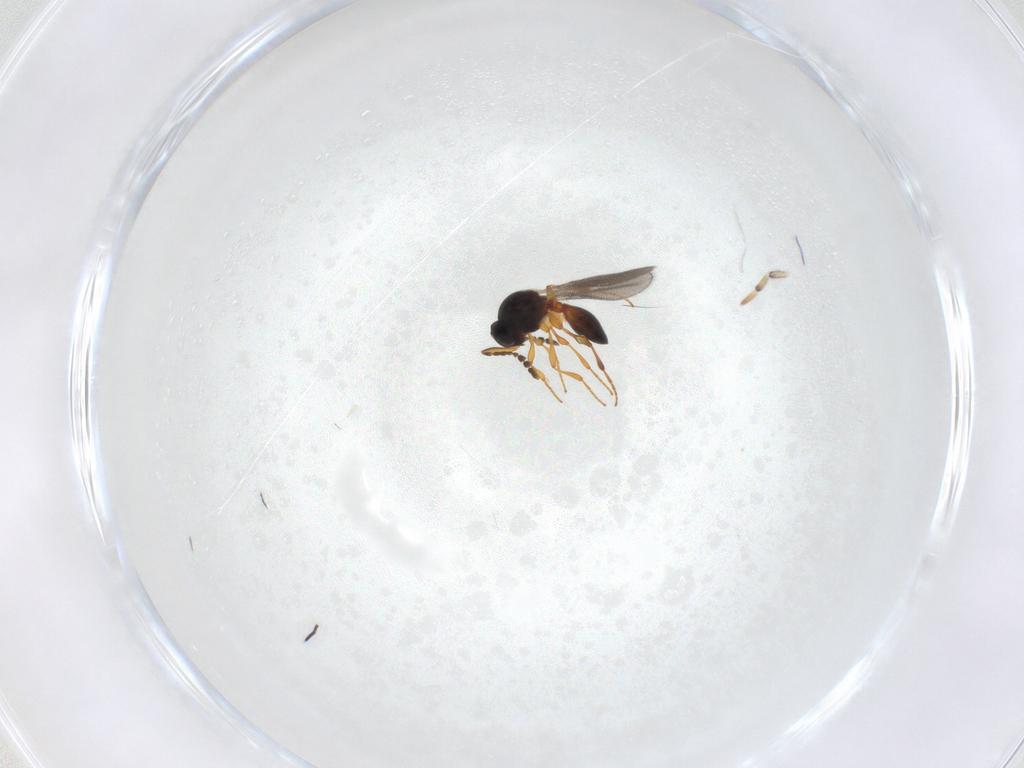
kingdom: Animalia
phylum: Arthropoda
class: Insecta
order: Hymenoptera
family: Platygastridae
